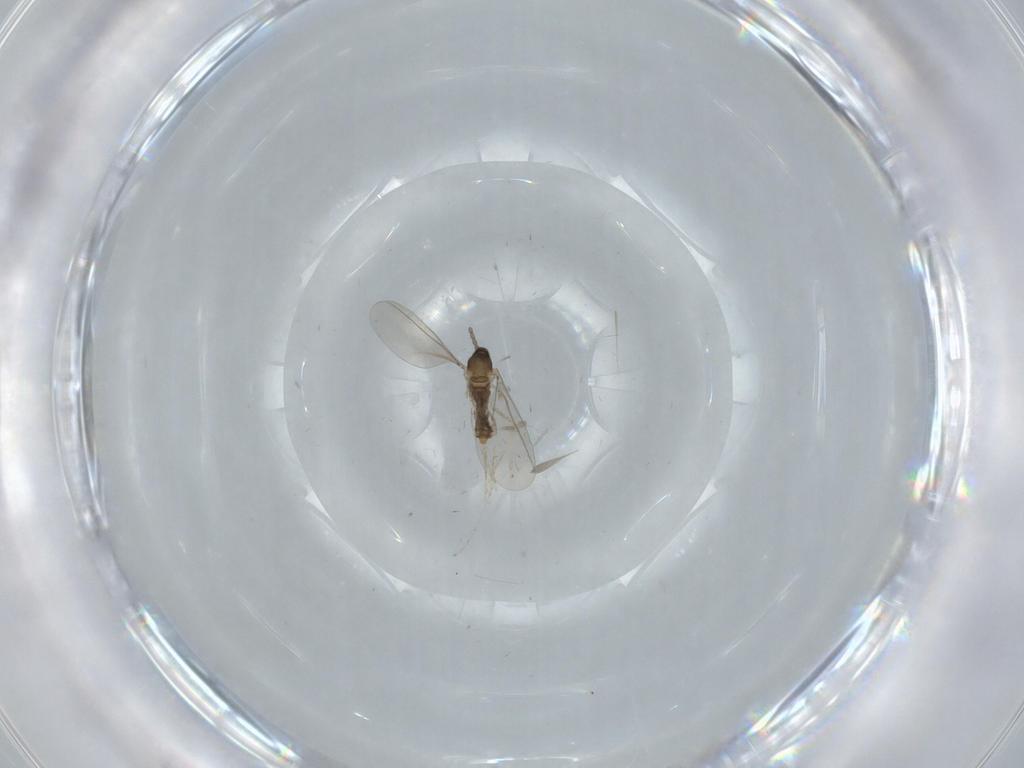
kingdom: Animalia
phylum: Arthropoda
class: Insecta
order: Diptera
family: Cecidomyiidae
